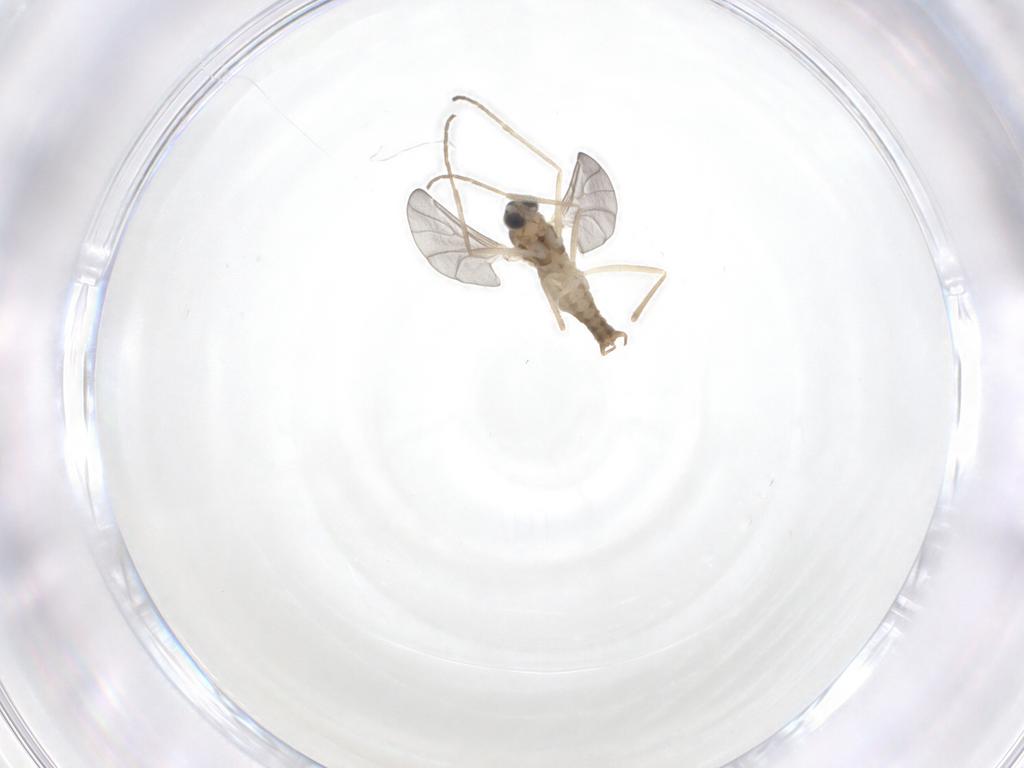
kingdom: Animalia
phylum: Arthropoda
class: Insecta
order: Diptera
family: Cecidomyiidae
